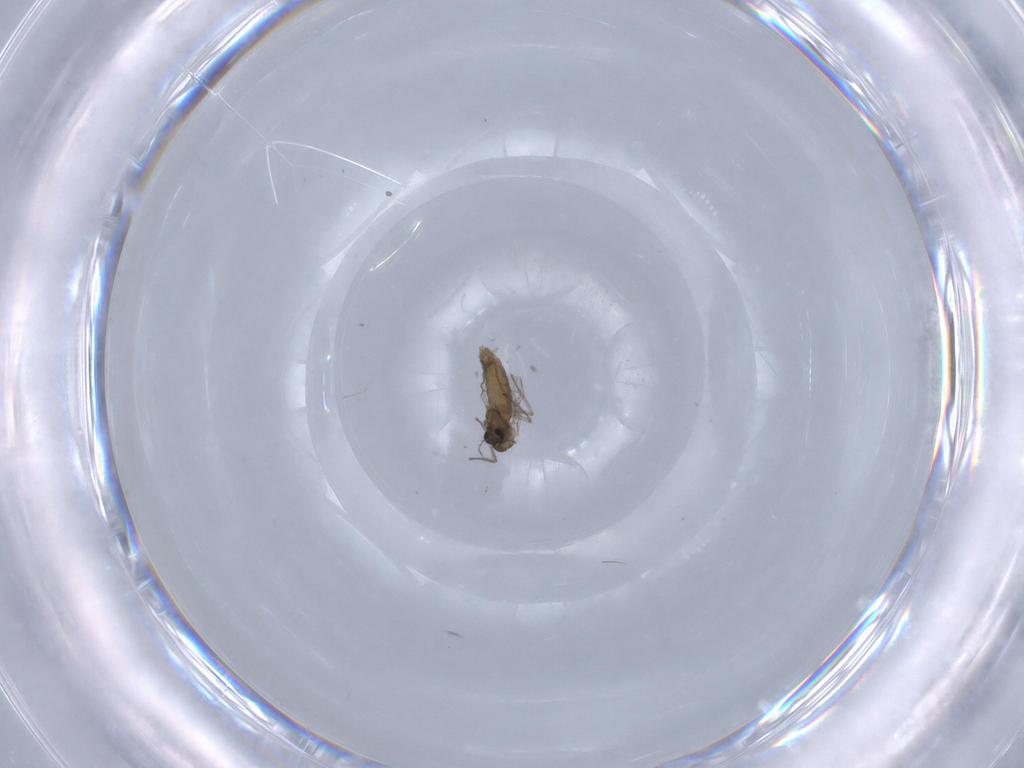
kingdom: Animalia
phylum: Arthropoda
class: Insecta
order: Diptera
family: Chironomidae
